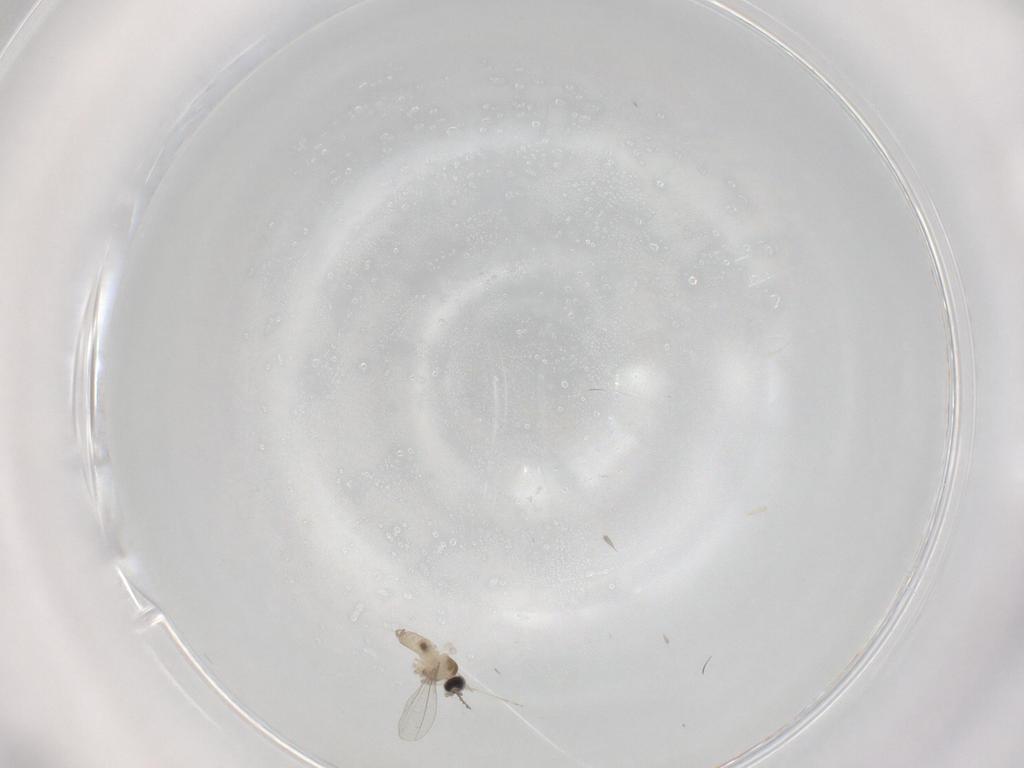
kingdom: Animalia
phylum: Arthropoda
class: Insecta
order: Diptera
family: Cecidomyiidae
